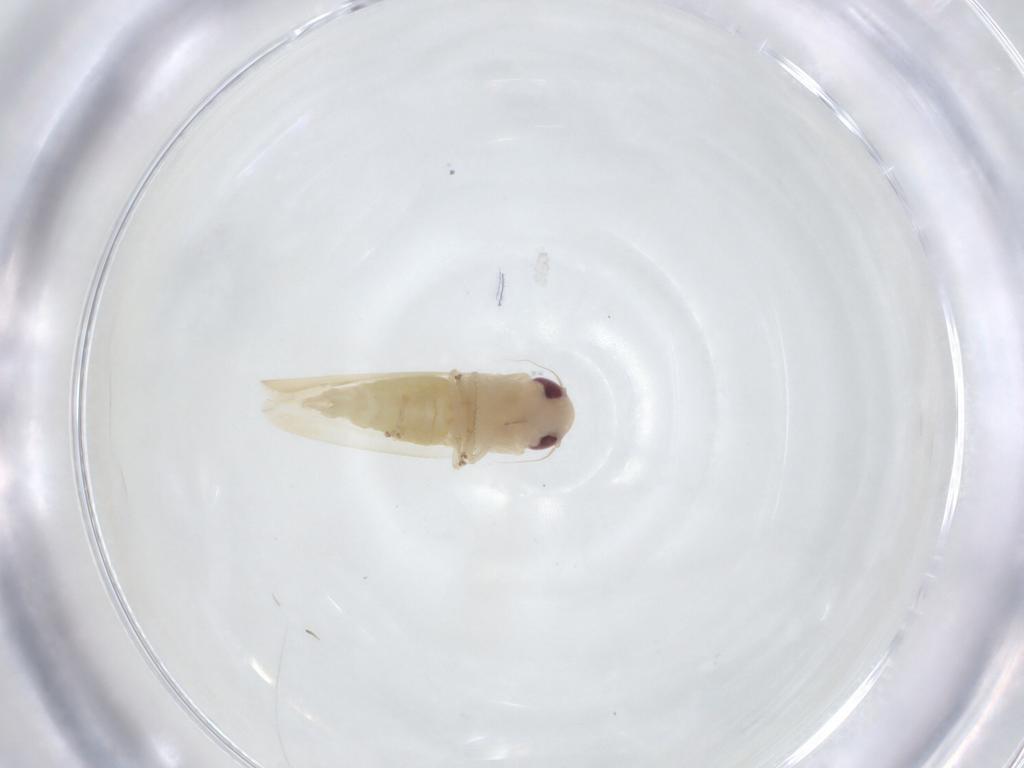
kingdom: Animalia
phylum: Arthropoda
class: Insecta
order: Hemiptera
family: Cicadellidae
